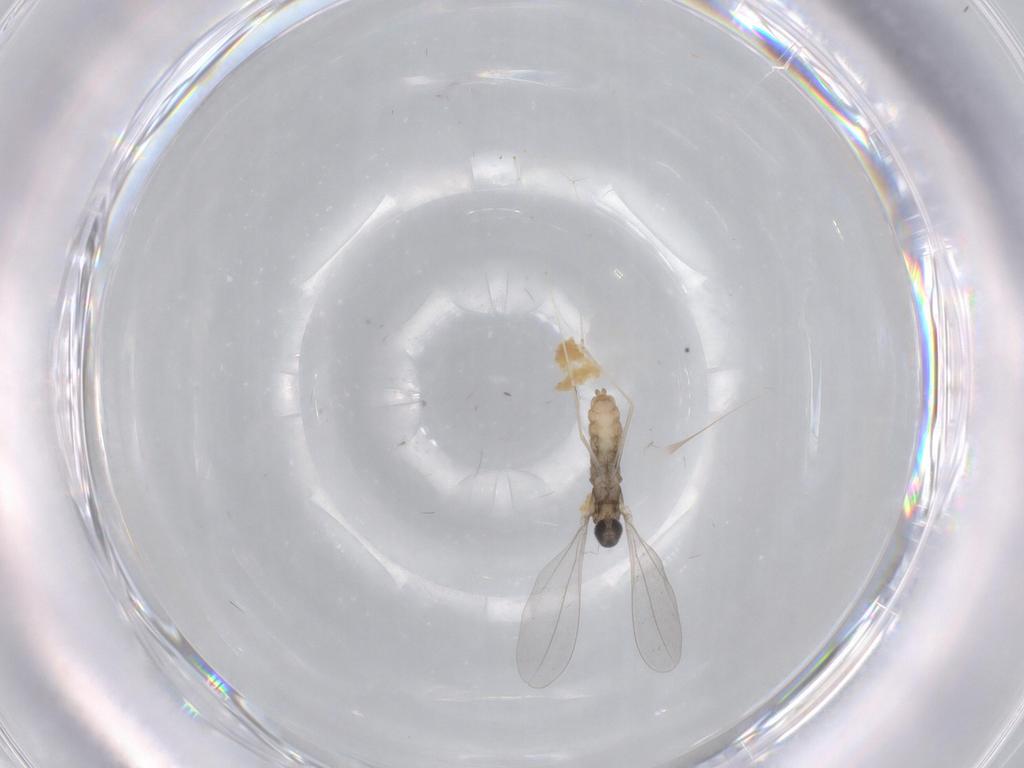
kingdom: Animalia
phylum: Arthropoda
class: Insecta
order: Diptera
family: Cecidomyiidae
